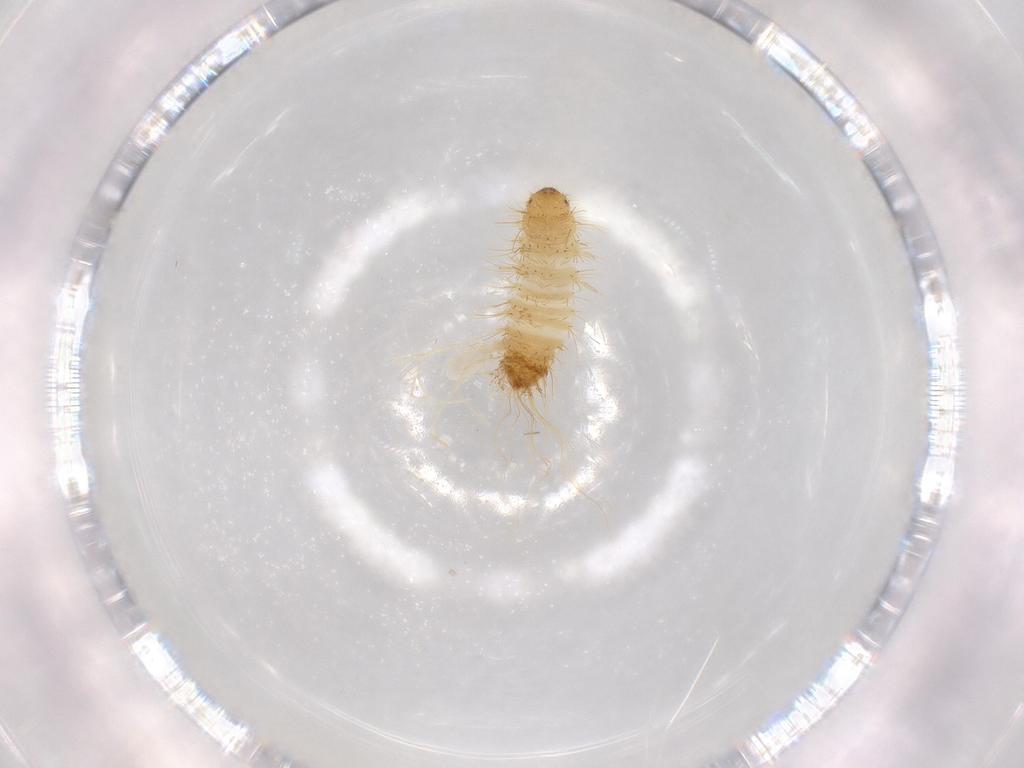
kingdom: Animalia
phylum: Arthropoda
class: Insecta
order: Coleoptera
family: Dermestidae
